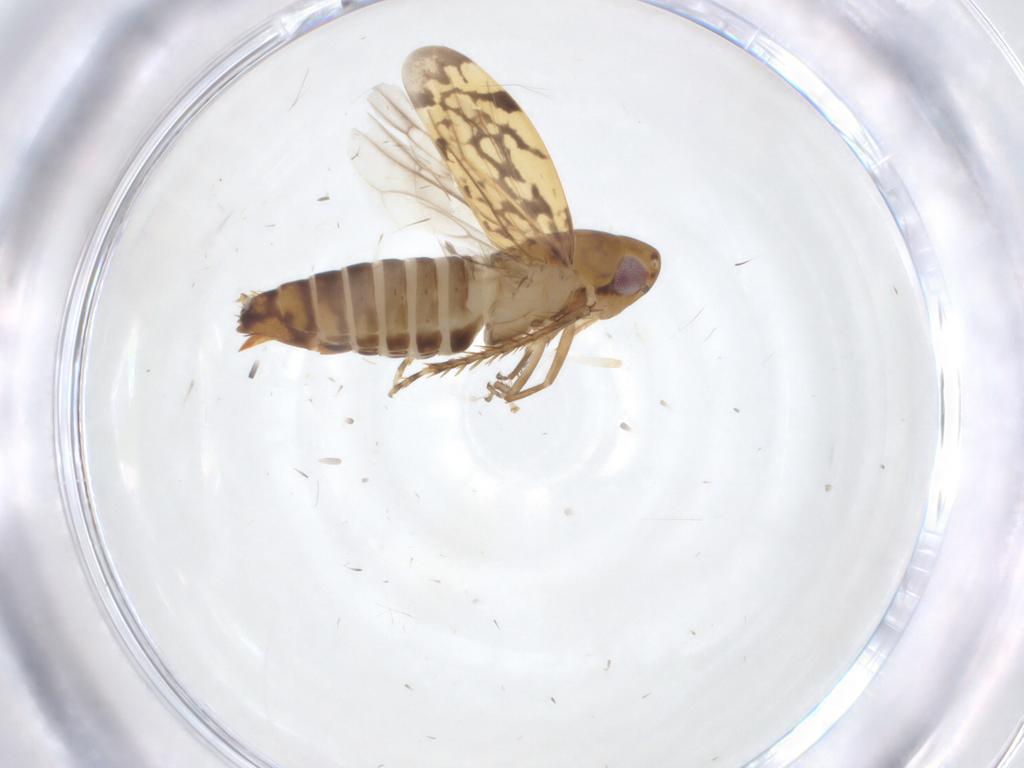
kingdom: Animalia
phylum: Arthropoda
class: Insecta
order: Hemiptera
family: Cicadellidae
